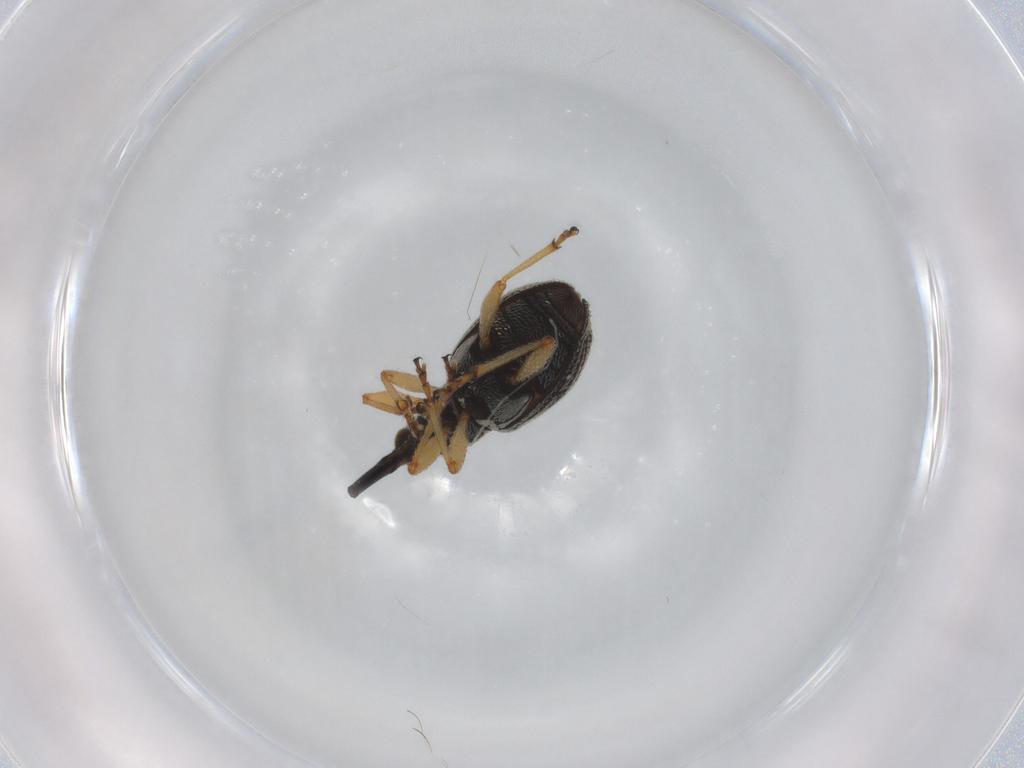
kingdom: Animalia
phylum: Arthropoda
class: Insecta
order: Coleoptera
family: Brentidae
